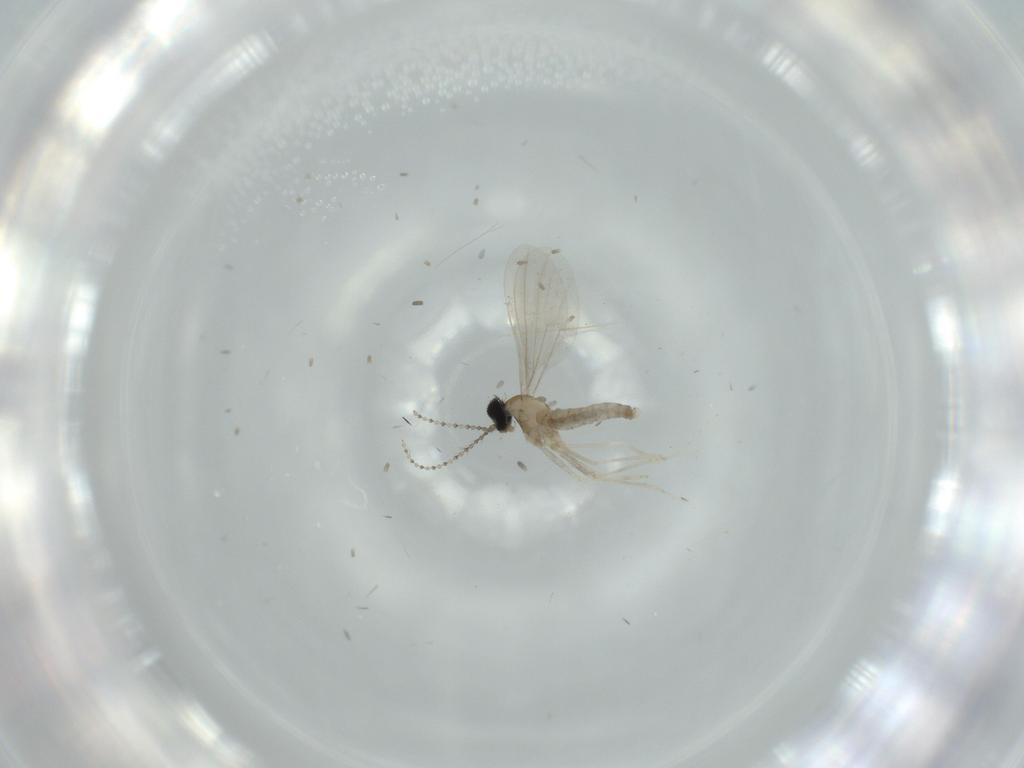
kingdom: Animalia
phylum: Arthropoda
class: Insecta
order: Diptera
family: Cecidomyiidae
